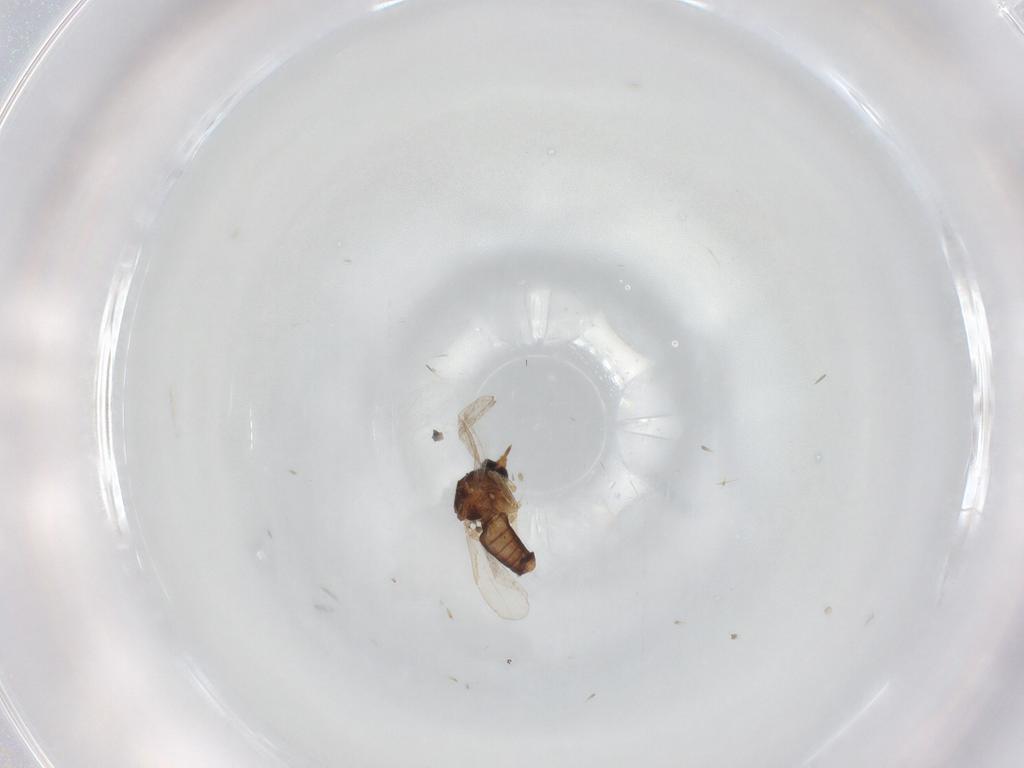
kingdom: Animalia
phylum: Arthropoda
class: Insecta
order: Diptera
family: Ceratopogonidae
